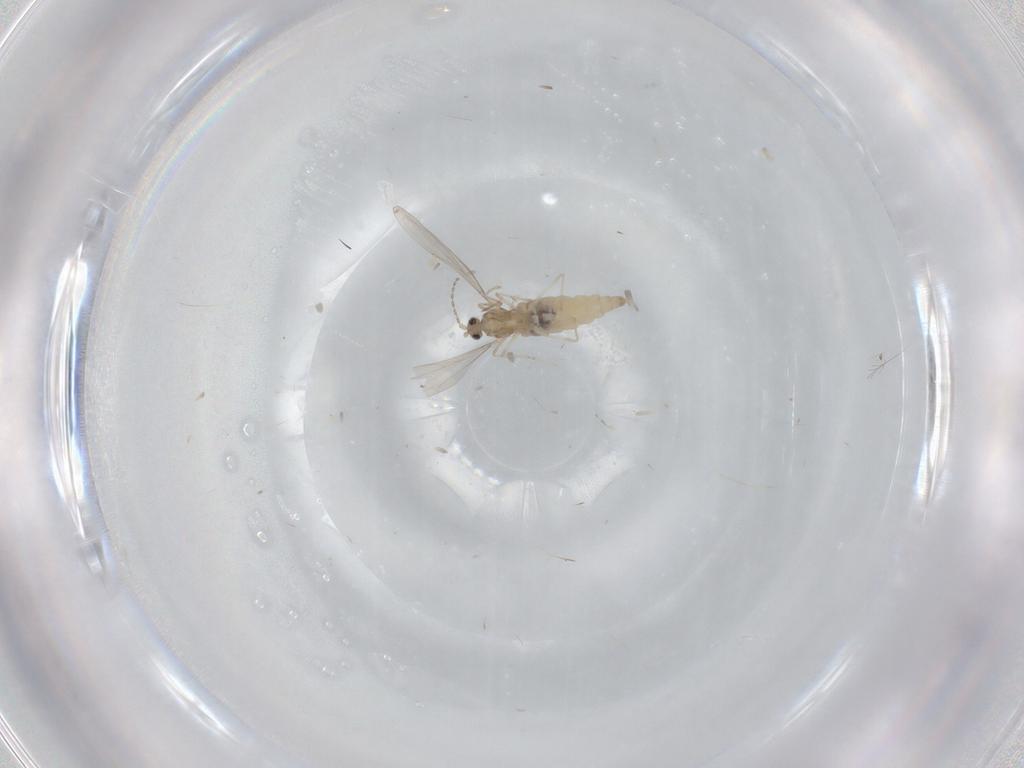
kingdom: Animalia
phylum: Arthropoda
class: Insecta
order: Diptera
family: Cecidomyiidae
